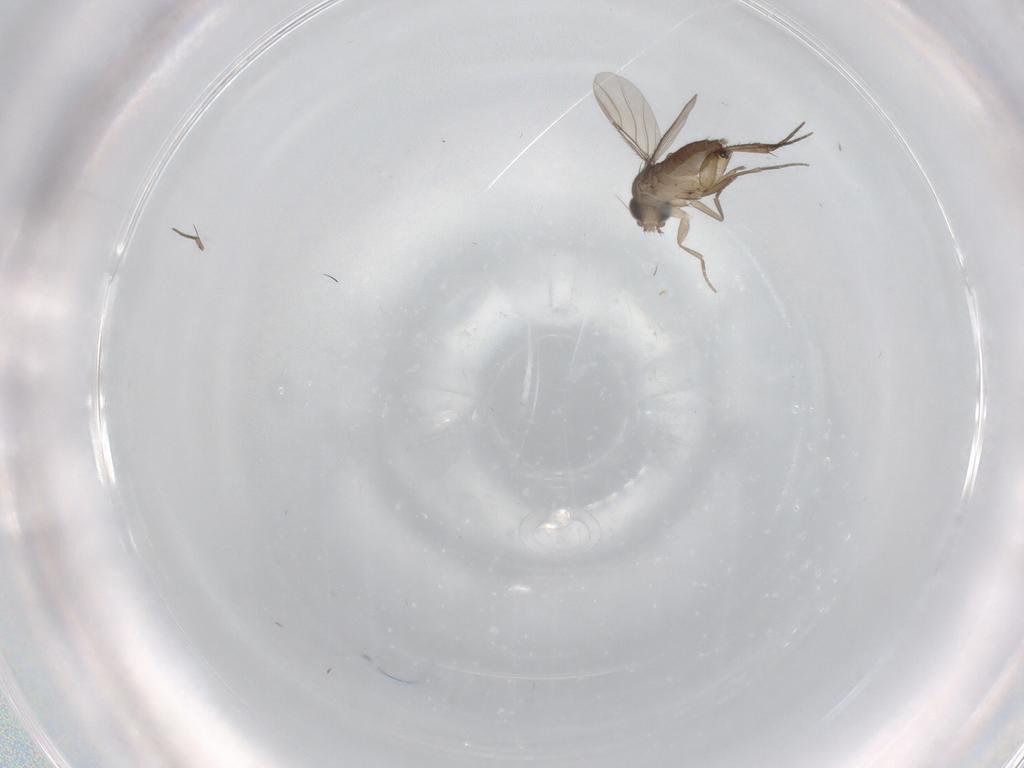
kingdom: Animalia
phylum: Arthropoda
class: Insecta
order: Diptera
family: Phoridae
